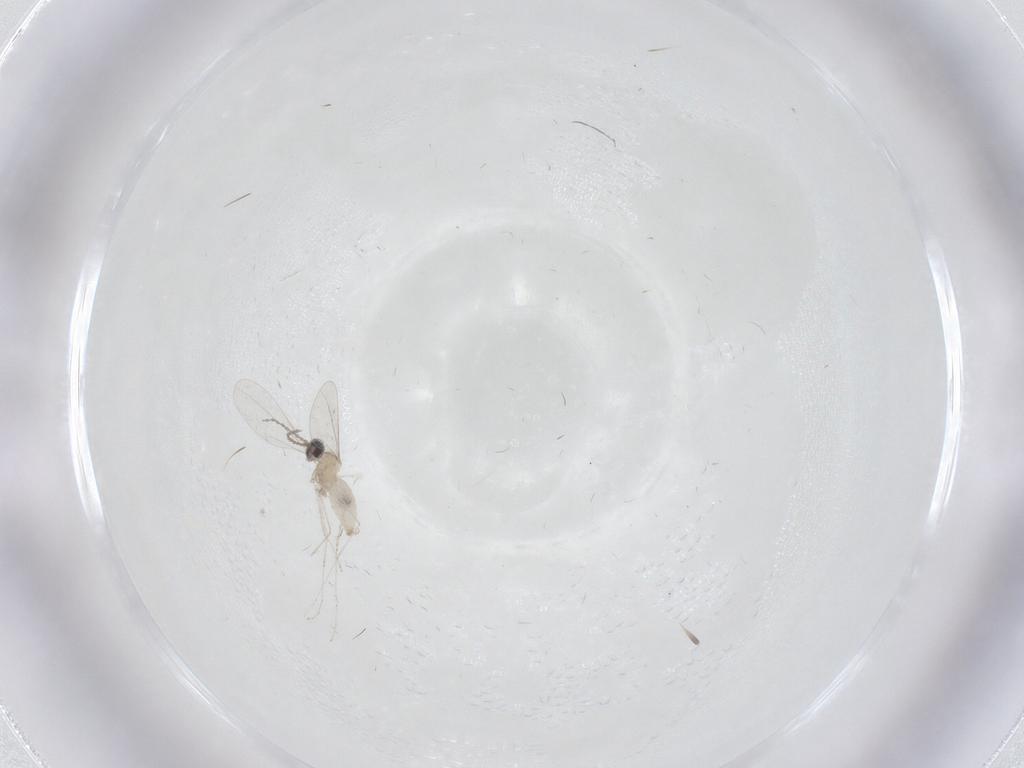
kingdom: Animalia
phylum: Arthropoda
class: Insecta
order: Diptera
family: Cecidomyiidae
